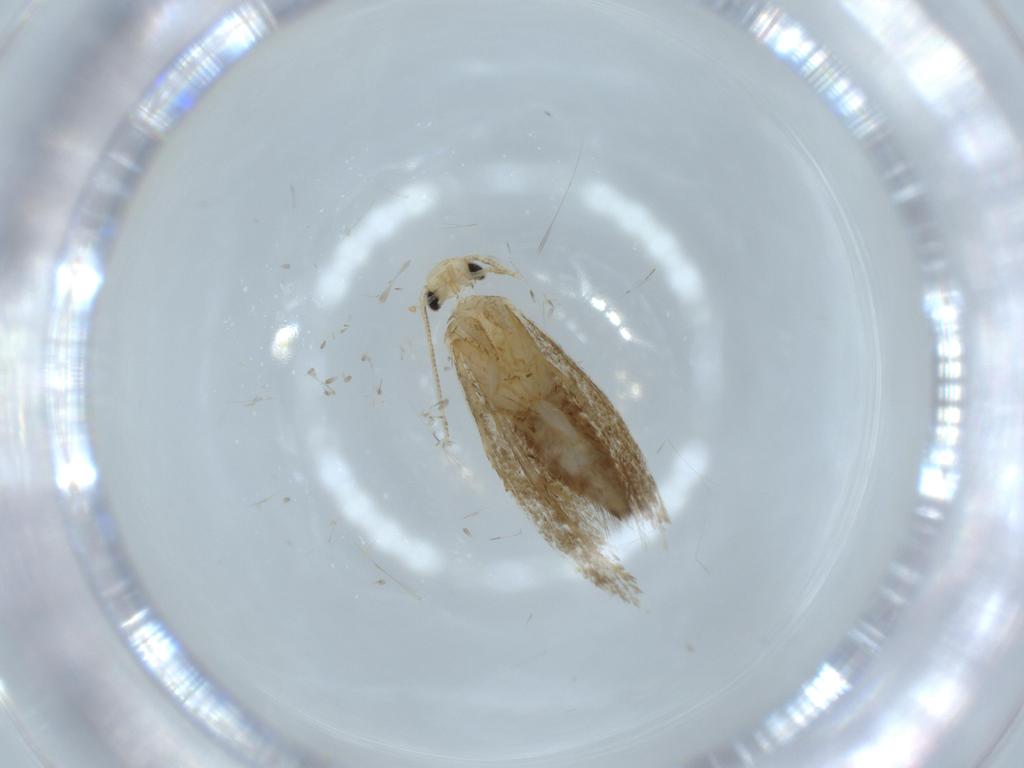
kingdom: Animalia
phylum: Arthropoda
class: Insecta
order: Lepidoptera
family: Tineidae
